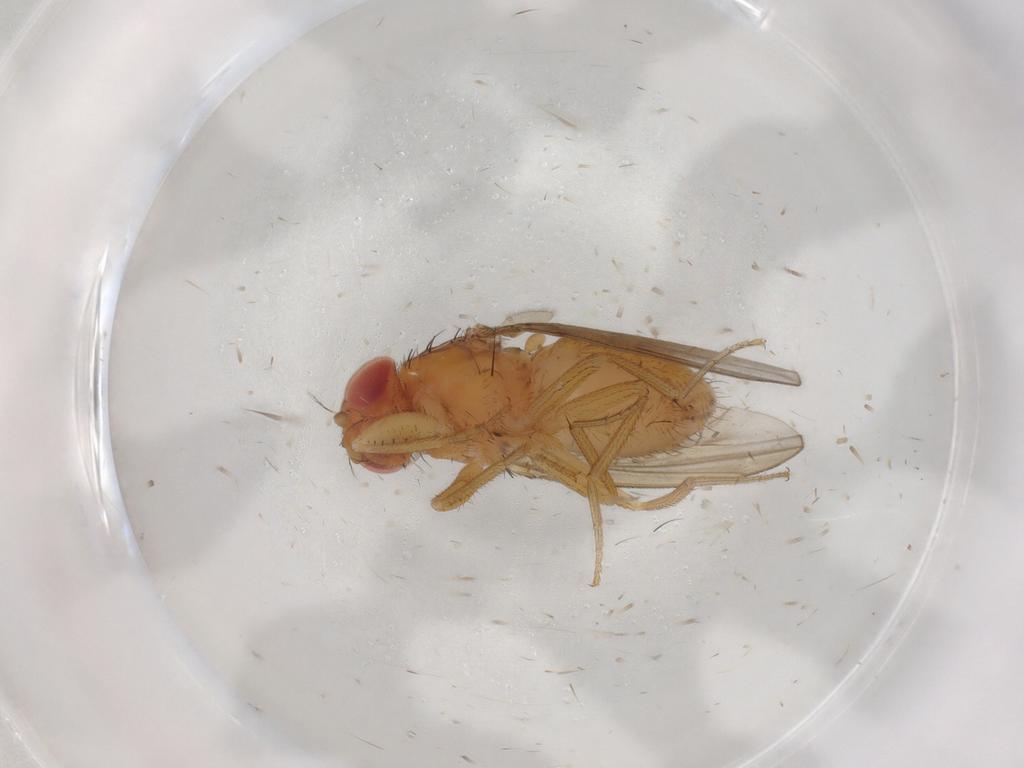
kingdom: Animalia
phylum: Arthropoda
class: Insecta
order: Diptera
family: Drosophilidae
